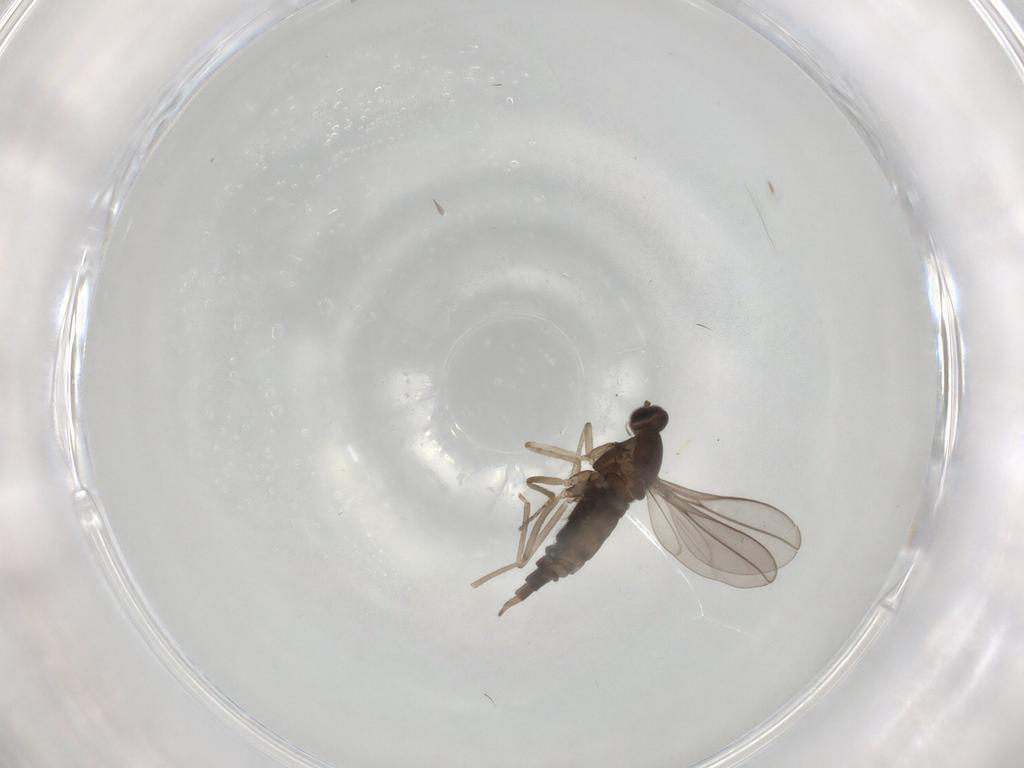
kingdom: Animalia
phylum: Arthropoda
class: Insecta
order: Diptera
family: Cecidomyiidae
